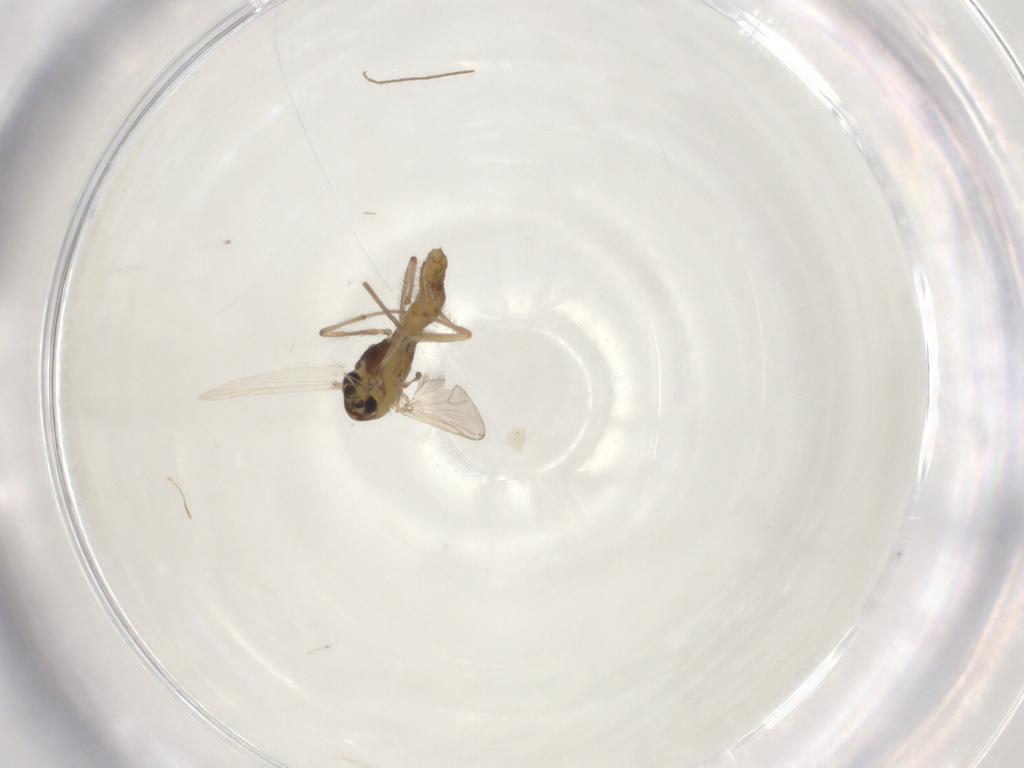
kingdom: Animalia
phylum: Arthropoda
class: Insecta
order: Diptera
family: Chironomidae
